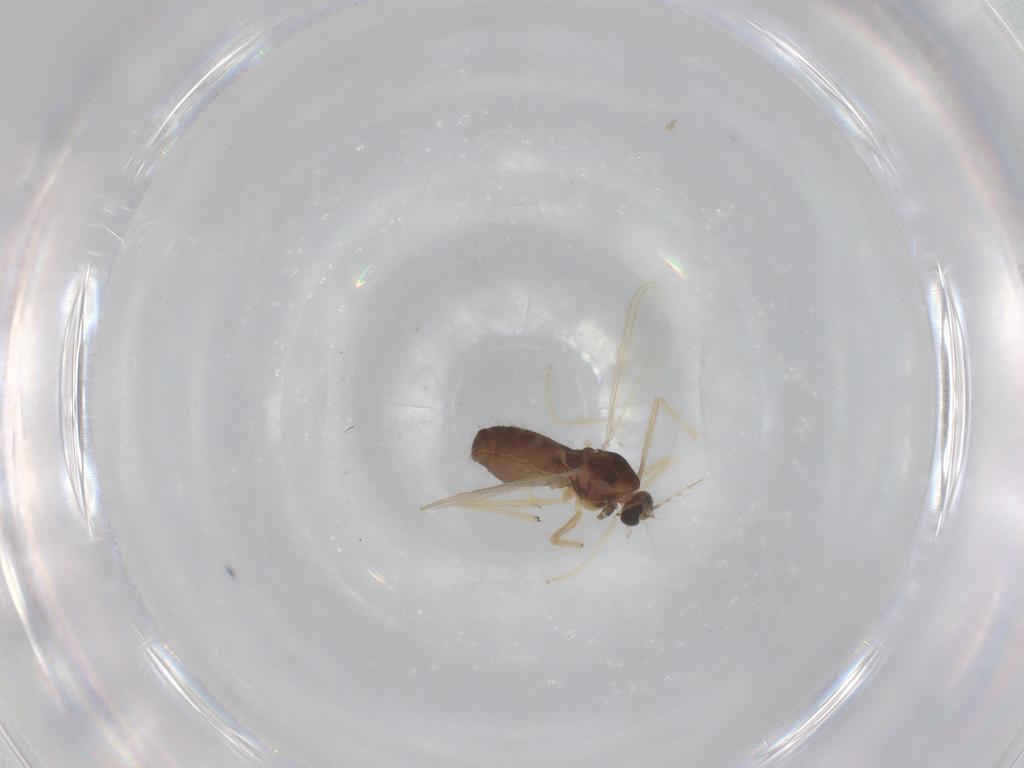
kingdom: Animalia
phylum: Arthropoda
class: Insecta
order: Diptera
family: Chironomidae
